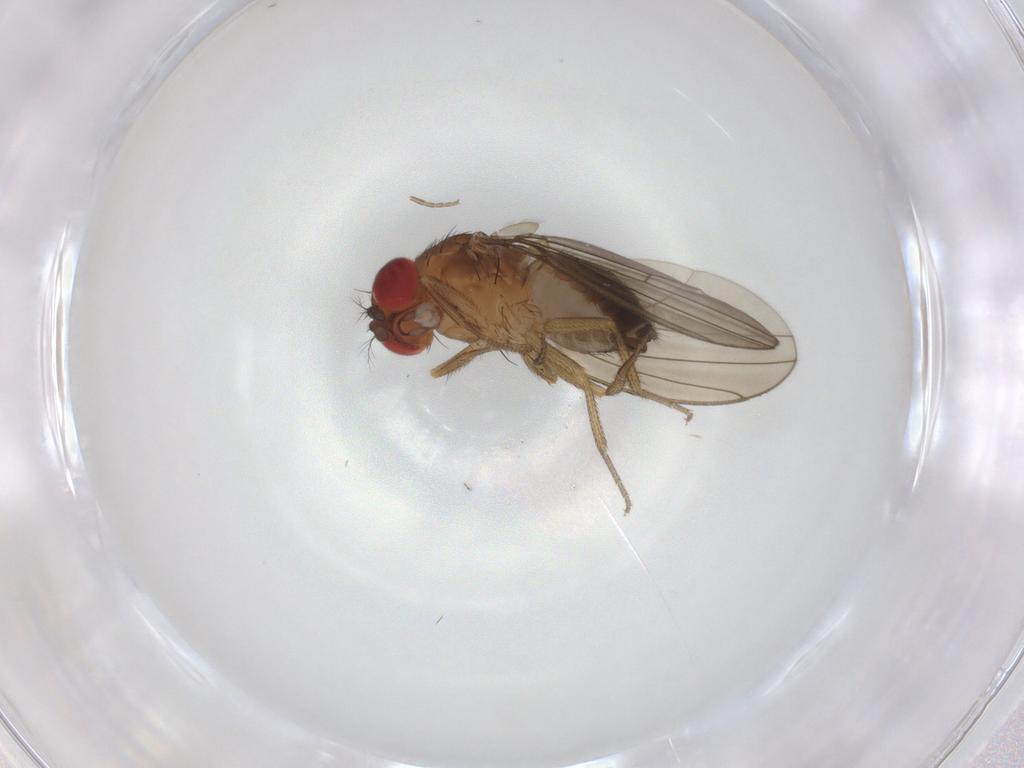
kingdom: Animalia
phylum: Arthropoda
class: Insecta
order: Diptera
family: Drosophilidae
